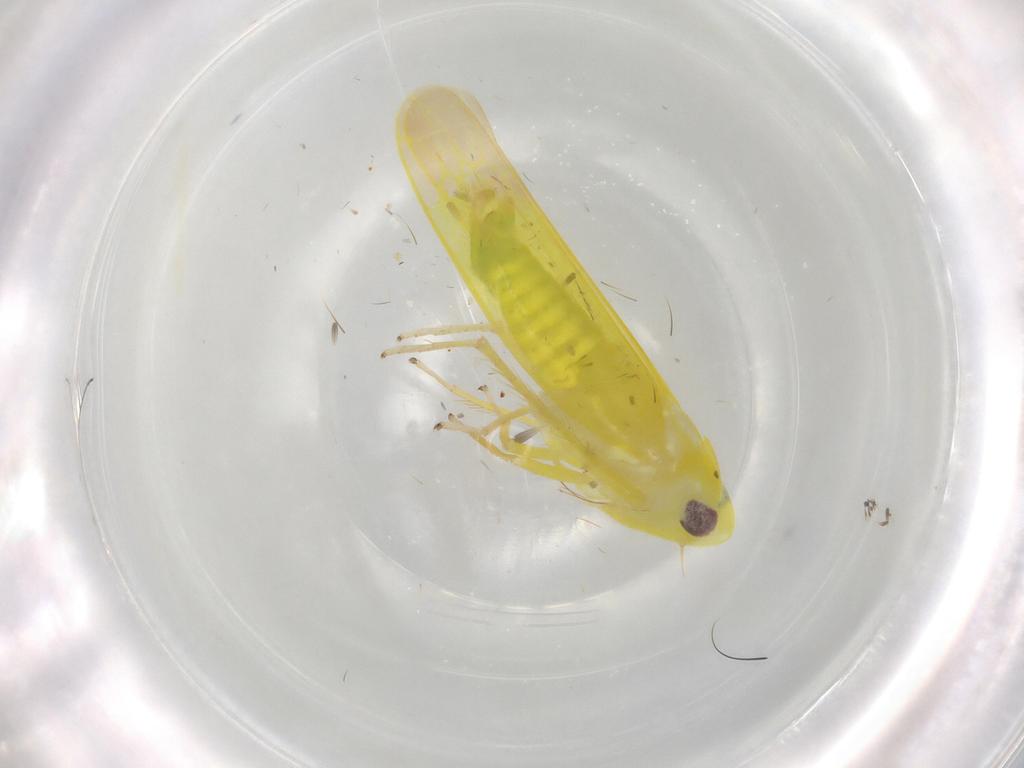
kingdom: Animalia
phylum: Arthropoda
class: Insecta
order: Hemiptera
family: Cicadellidae
